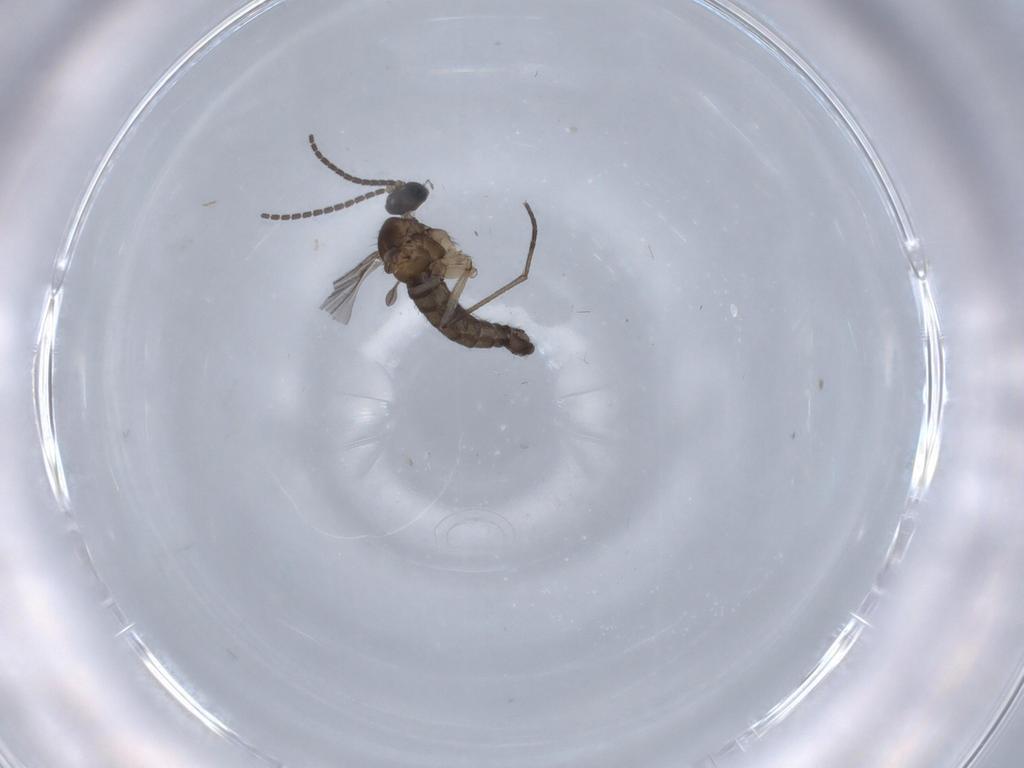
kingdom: Animalia
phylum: Arthropoda
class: Insecta
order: Diptera
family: Sciaridae
